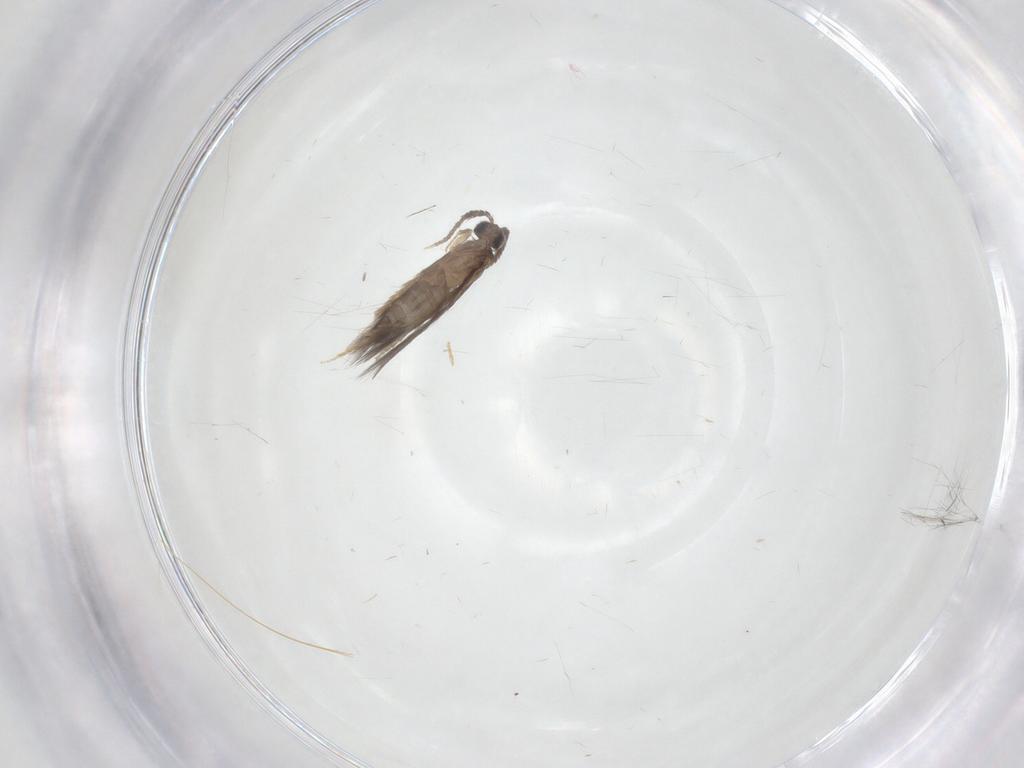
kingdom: Animalia
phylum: Arthropoda
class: Insecta
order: Trichoptera
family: Hydroptilidae
